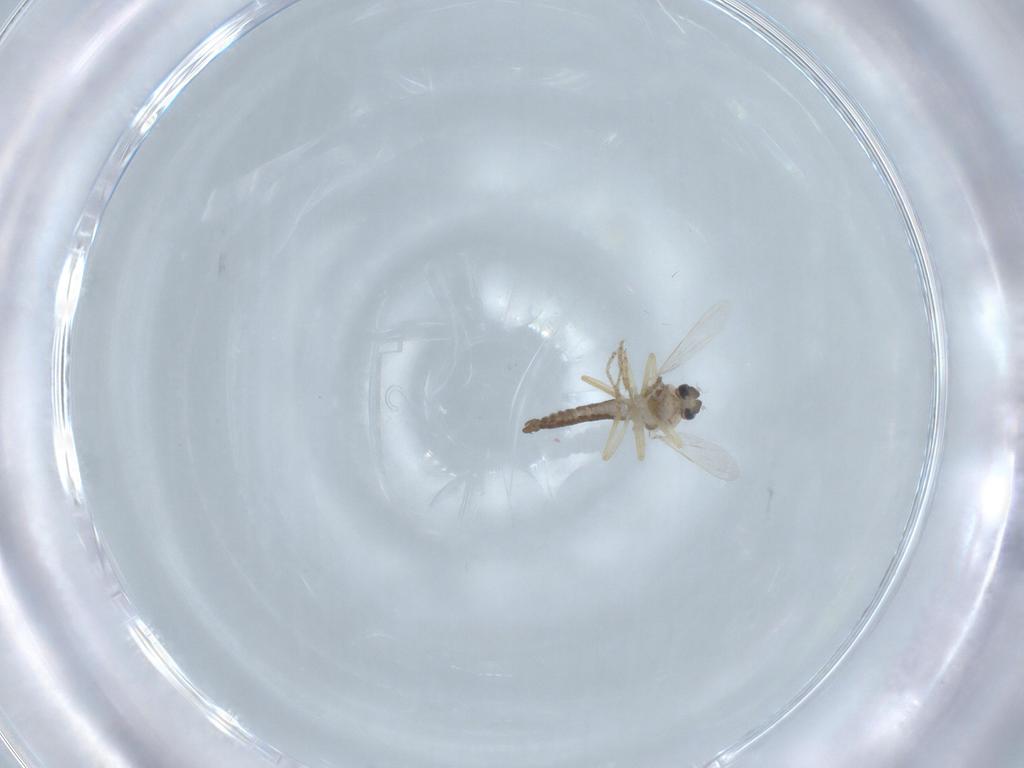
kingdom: Animalia
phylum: Arthropoda
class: Insecta
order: Diptera
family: Ceratopogonidae
